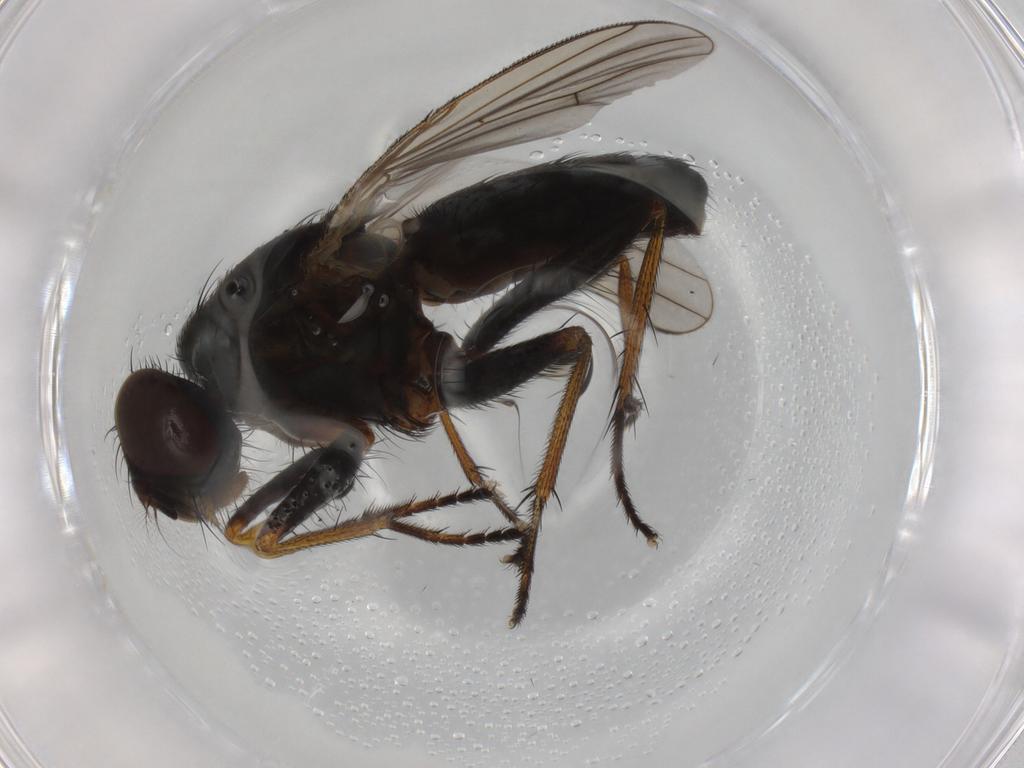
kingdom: Animalia
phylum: Arthropoda
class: Insecta
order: Diptera
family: Muscidae
